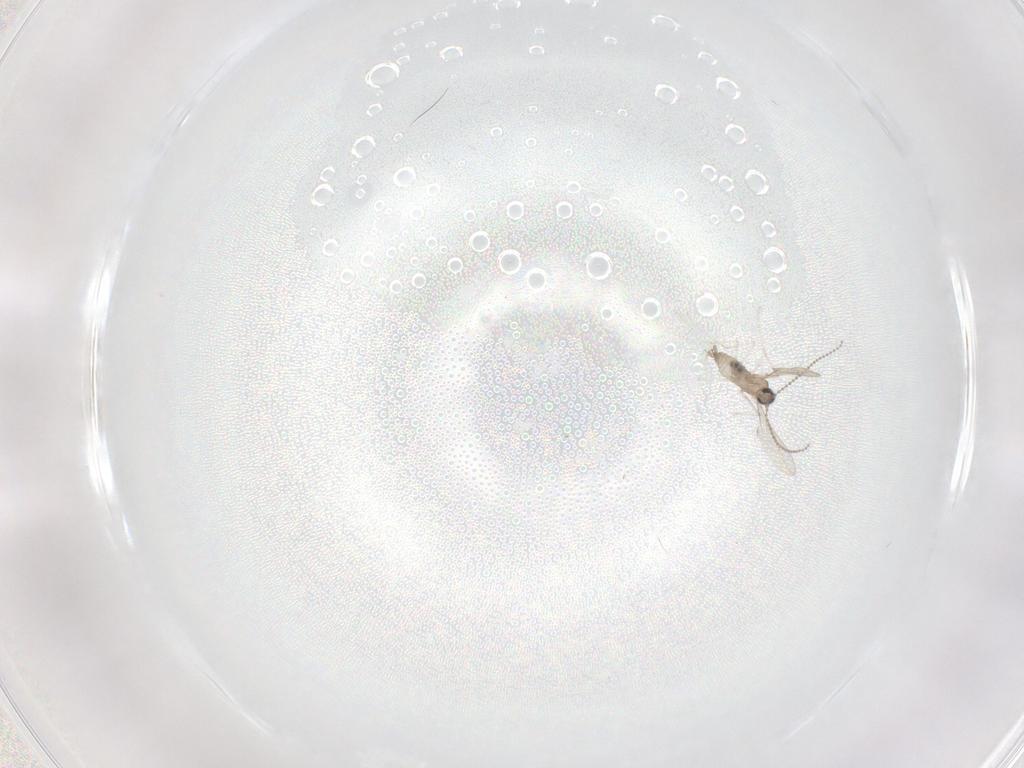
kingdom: Animalia
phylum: Arthropoda
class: Insecta
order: Diptera
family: Cecidomyiidae
